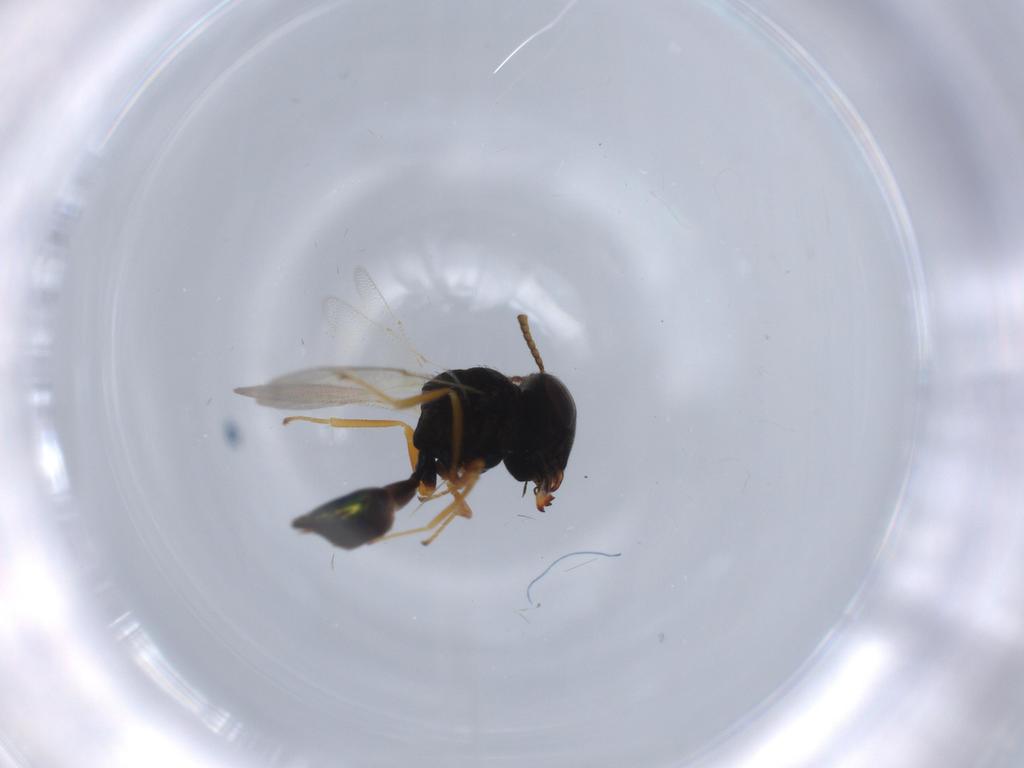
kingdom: Animalia
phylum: Arthropoda
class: Insecta
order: Hymenoptera
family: Pteromalidae
